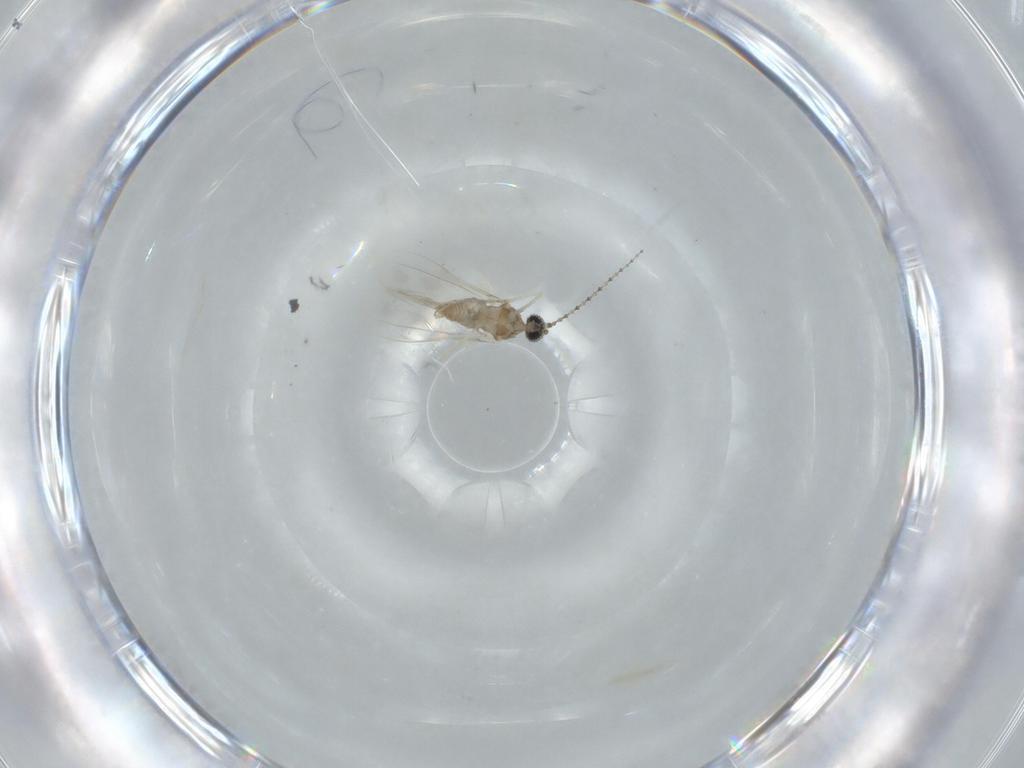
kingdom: Animalia
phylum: Arthropoda
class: Insecta
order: Diptera
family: Cecidomyiidae
